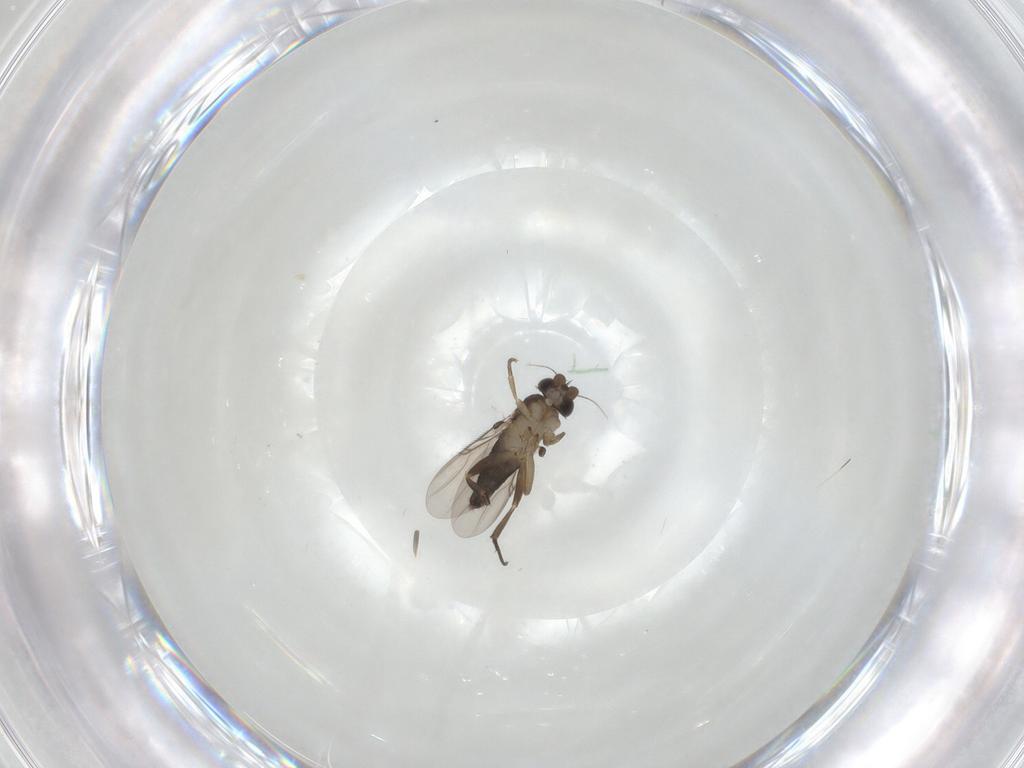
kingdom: Animalia
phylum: Arthropoda
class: Insecta
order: Diptera
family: Phoridae
